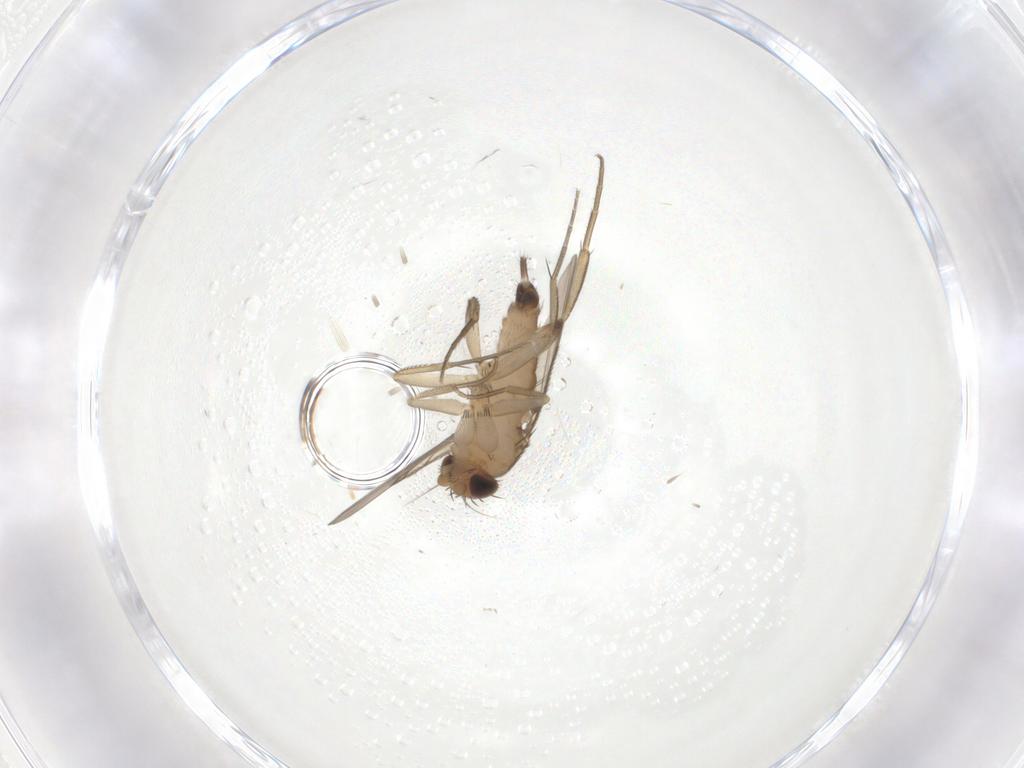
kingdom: Animalia
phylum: Arthropoda
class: Insecta
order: Diptera
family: Phoridae
